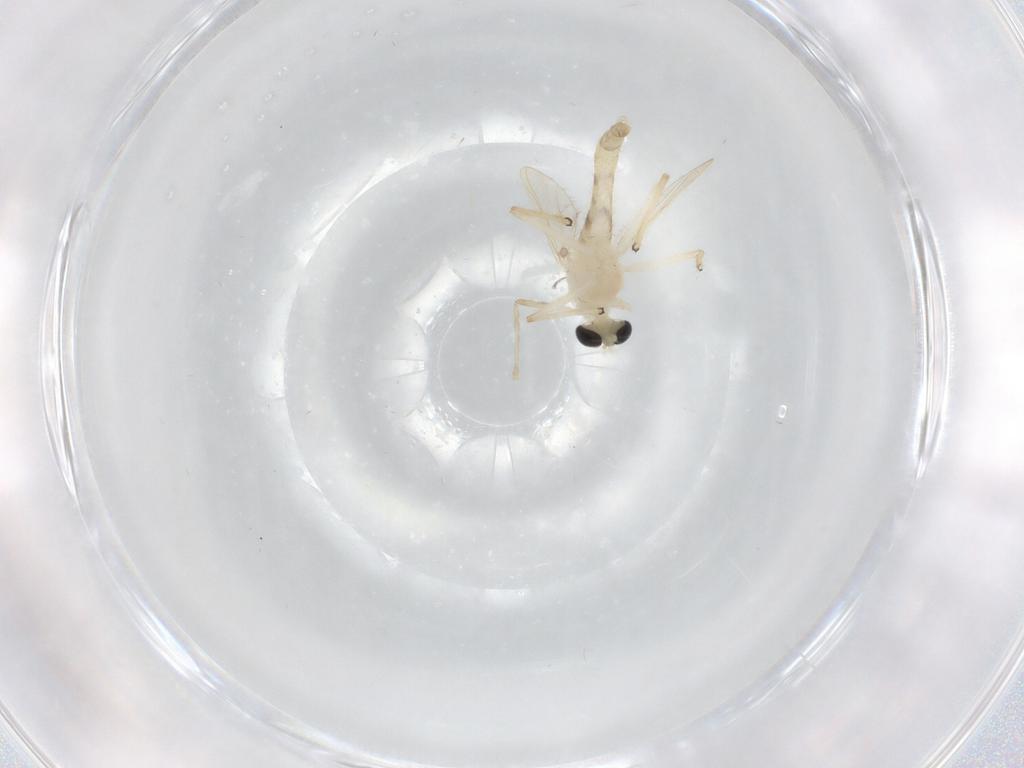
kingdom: Animalia
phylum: Arthropoda
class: Insecta
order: Diptera
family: Chironomidae
